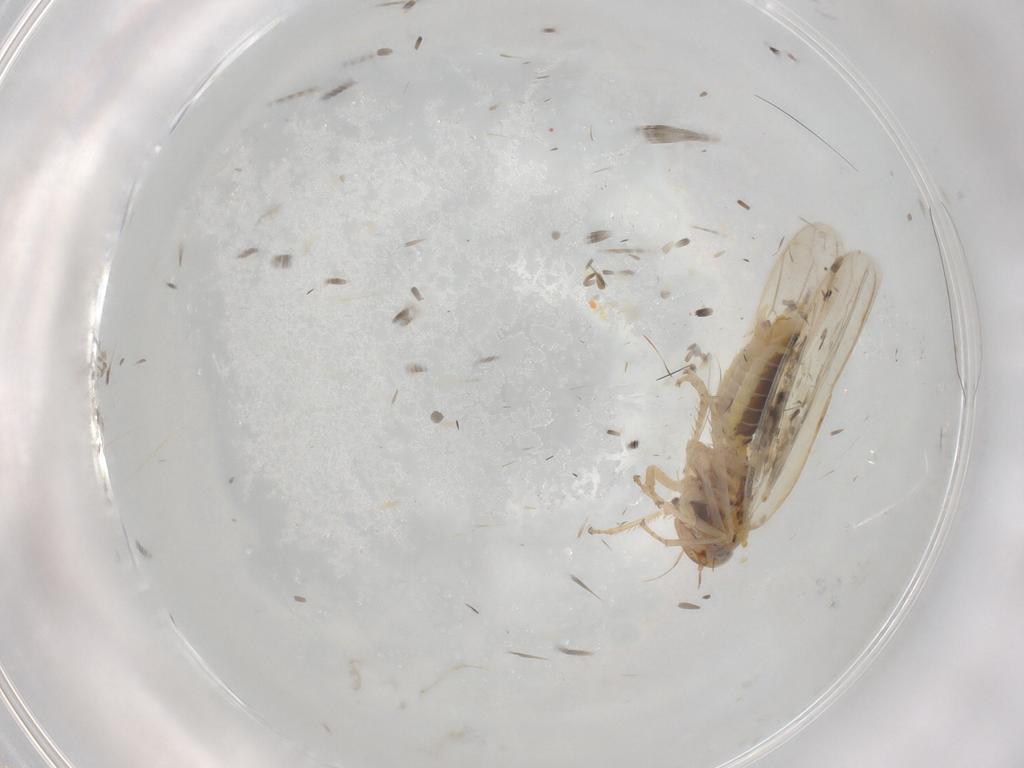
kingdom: Animalia
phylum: Arthropoda
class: Insecta
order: Hemiptera
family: Cicadellidae
